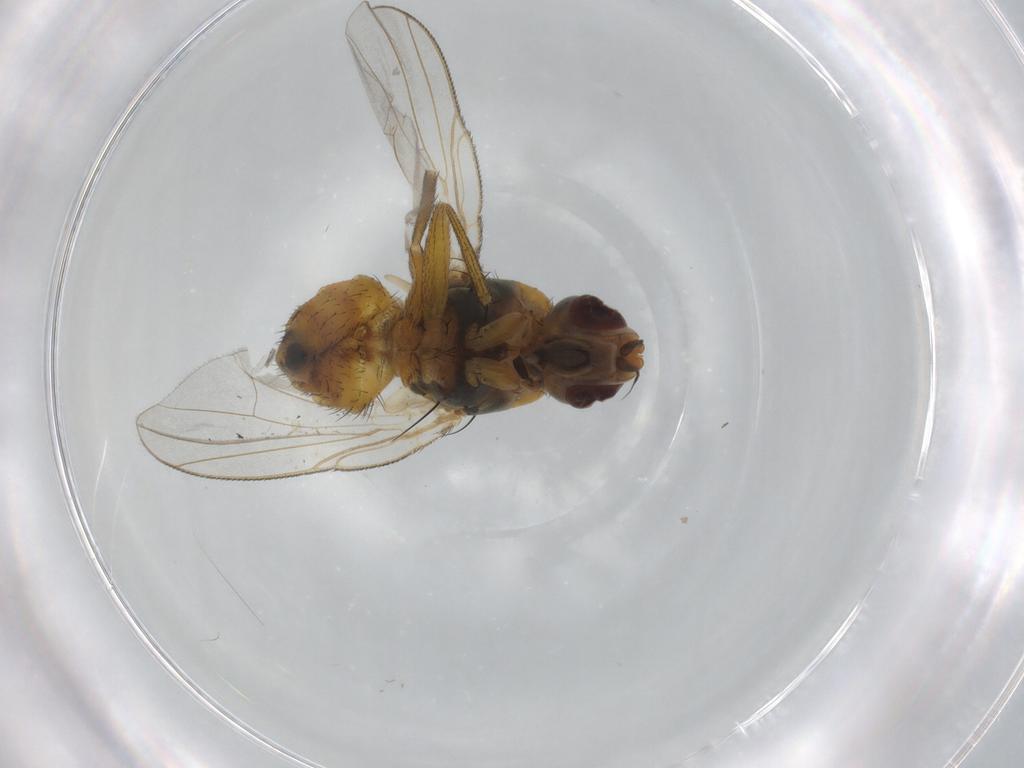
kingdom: Animalia
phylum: Arthropoda
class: Insecta
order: Diptera
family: Muscidae
